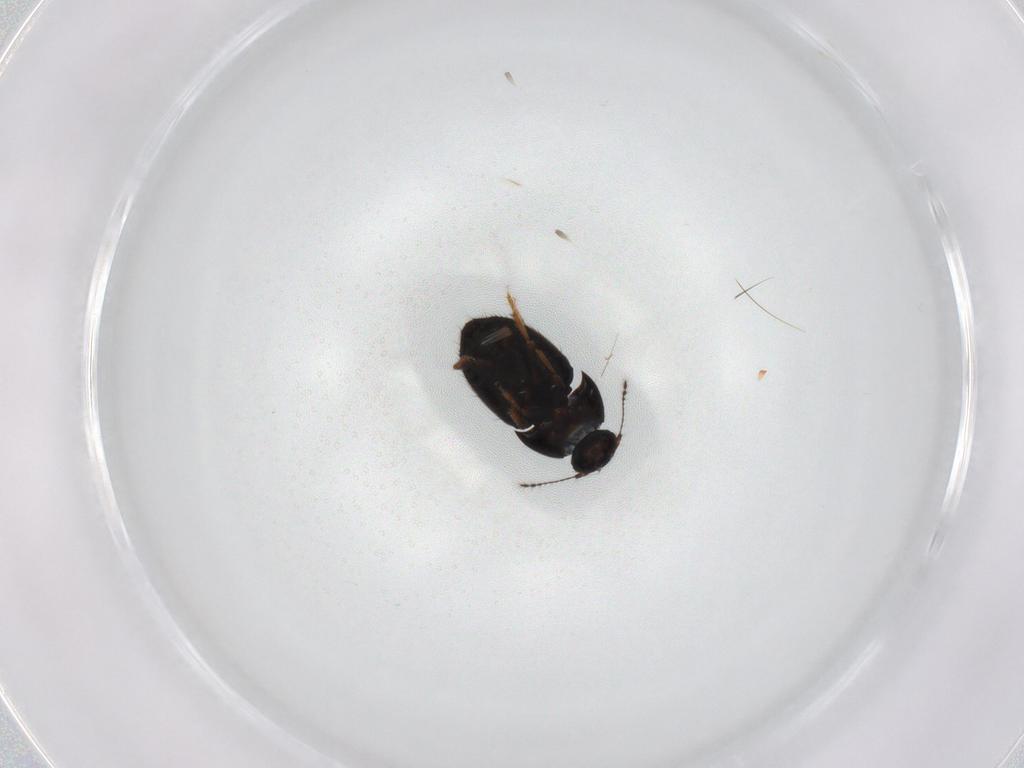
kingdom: Animalia
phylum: Arthropoda
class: Insecta
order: Coleoptera
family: Ptiliidae
